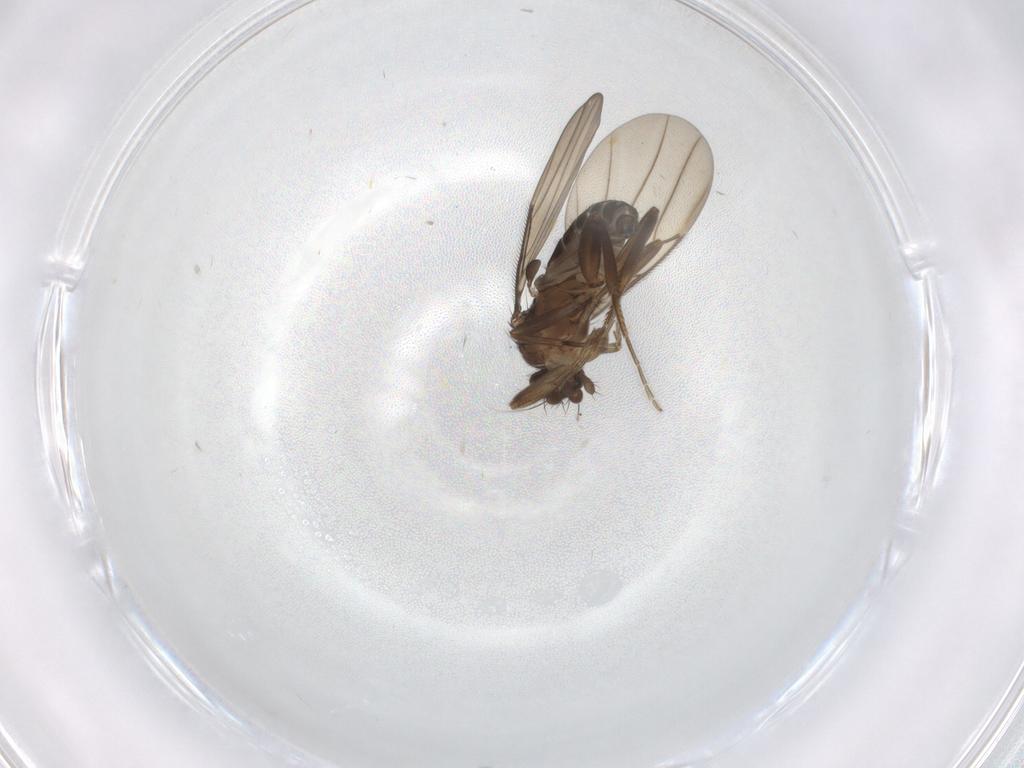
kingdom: Animalia
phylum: Arthropoda
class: Insecta
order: Diptera
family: Phoridae
